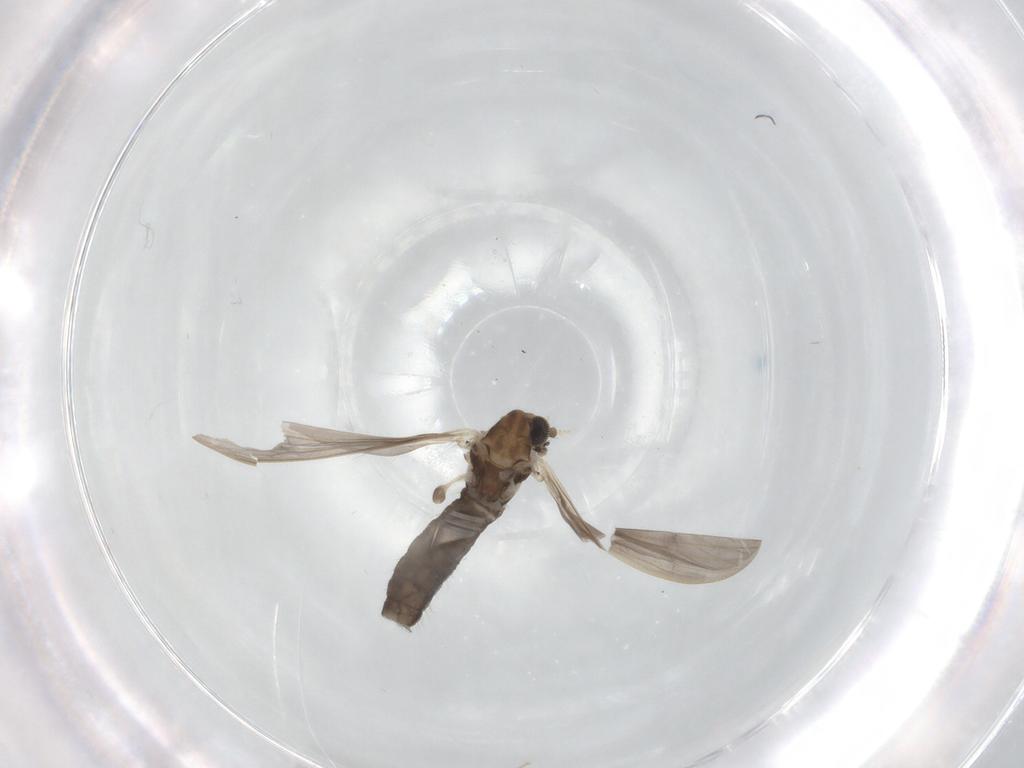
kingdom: Animalia
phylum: Arthropoda
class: Insecta
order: Diptera
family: Limoniidae
